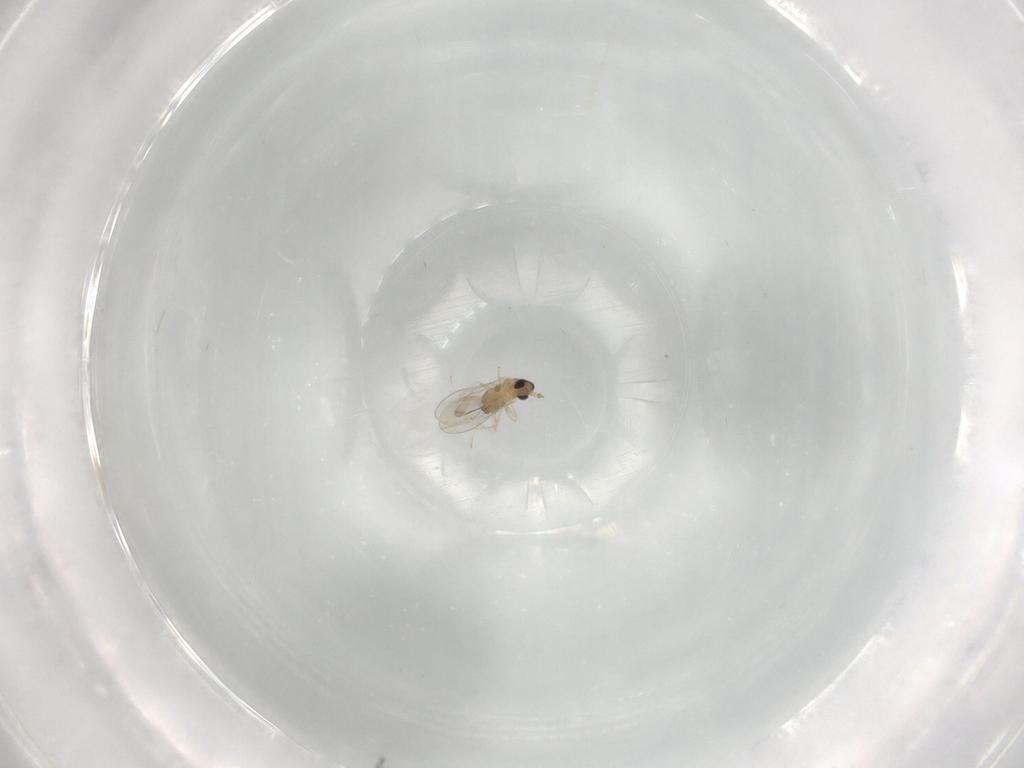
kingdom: Animalia
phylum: Arthropoda
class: Insecta
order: Diptera
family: Cecidomyiidae
